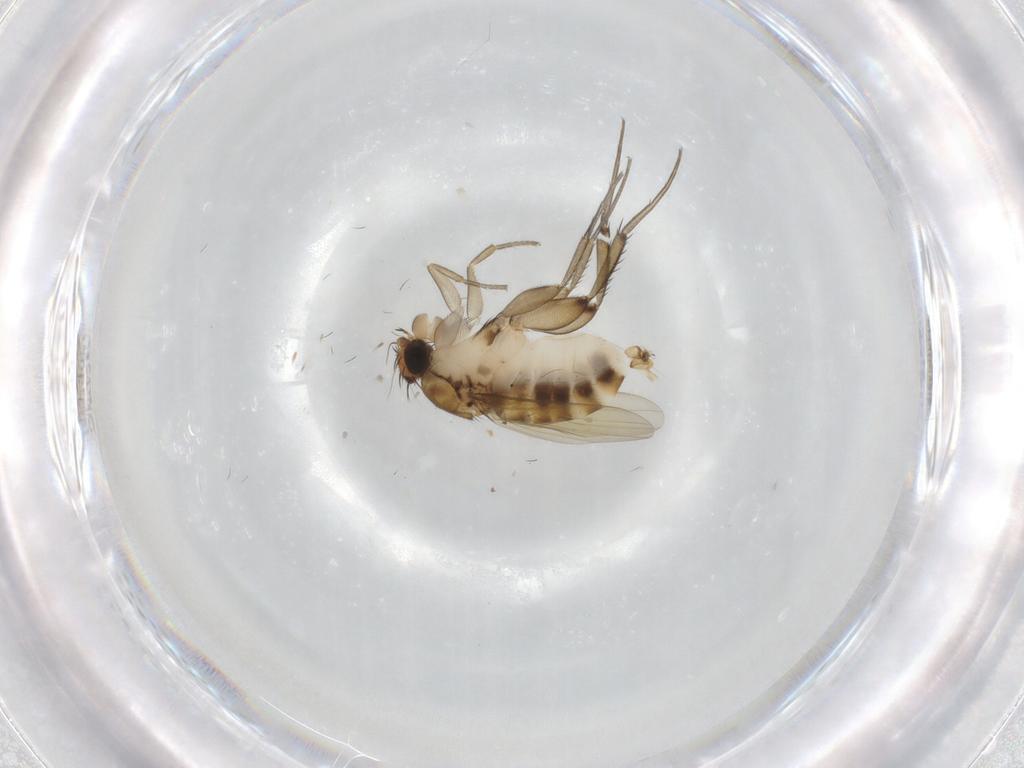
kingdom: Animalia
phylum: Arthropoda
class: Insecta
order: Diptera
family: Phoridae
